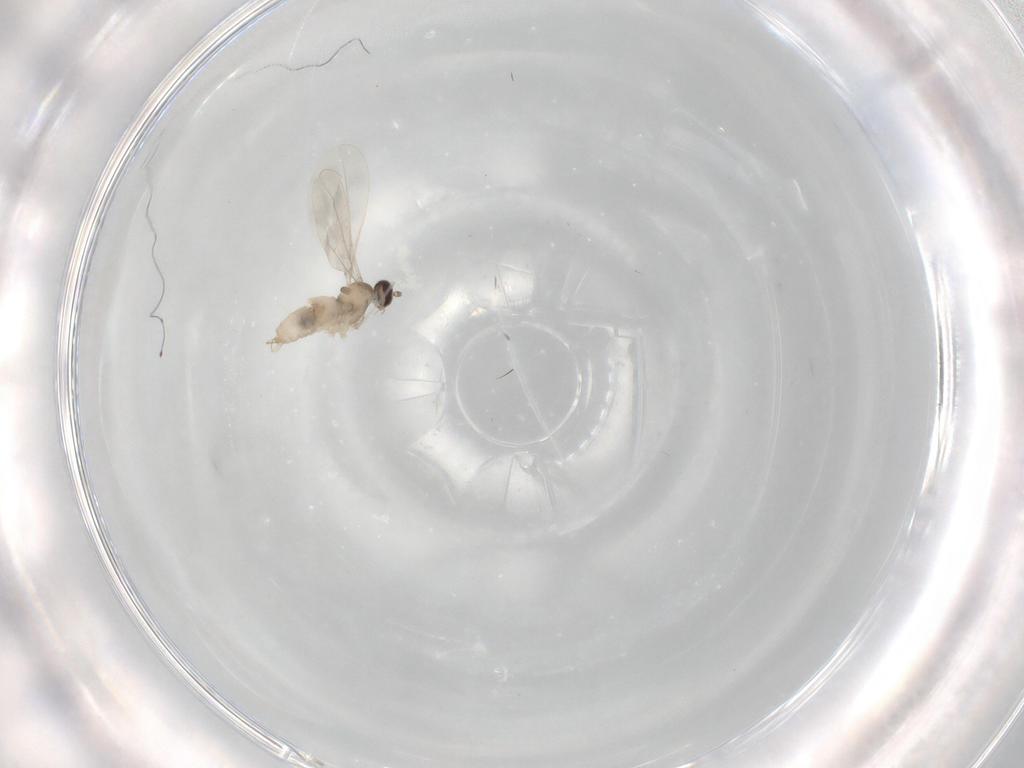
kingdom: Animalia
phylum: Arthropoda
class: Insecta
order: Diptera
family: Cecidomyiidae
